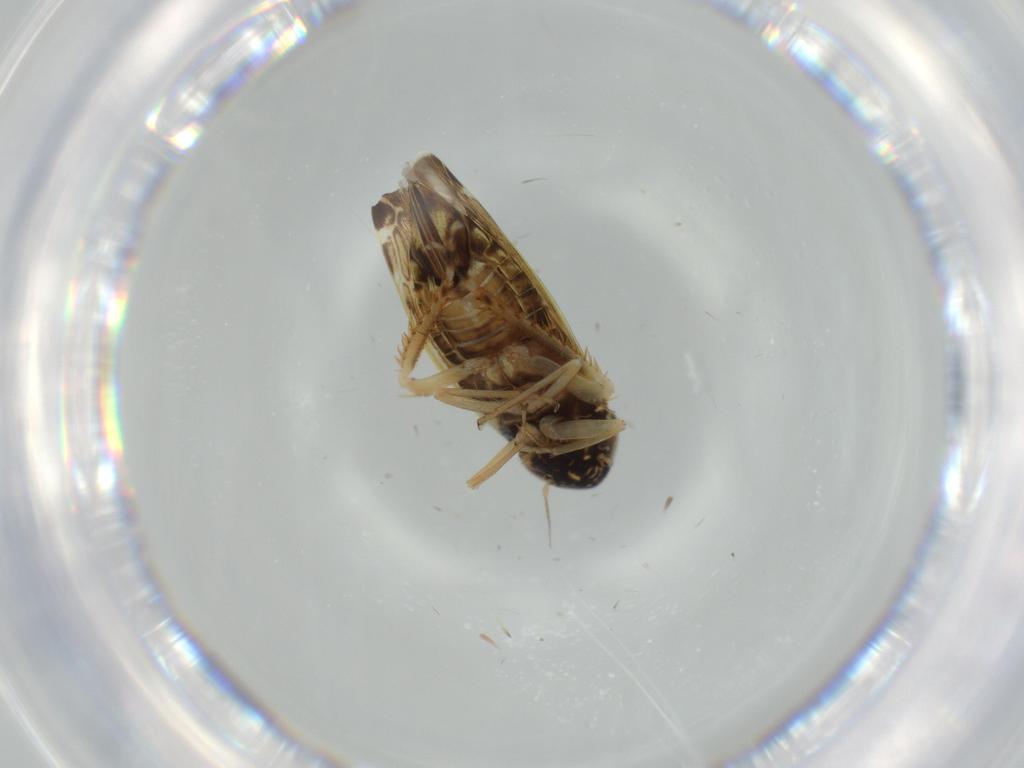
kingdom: Animalia
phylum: Arthropoda
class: Insecta
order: Hemiptera
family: Cicadellidae
